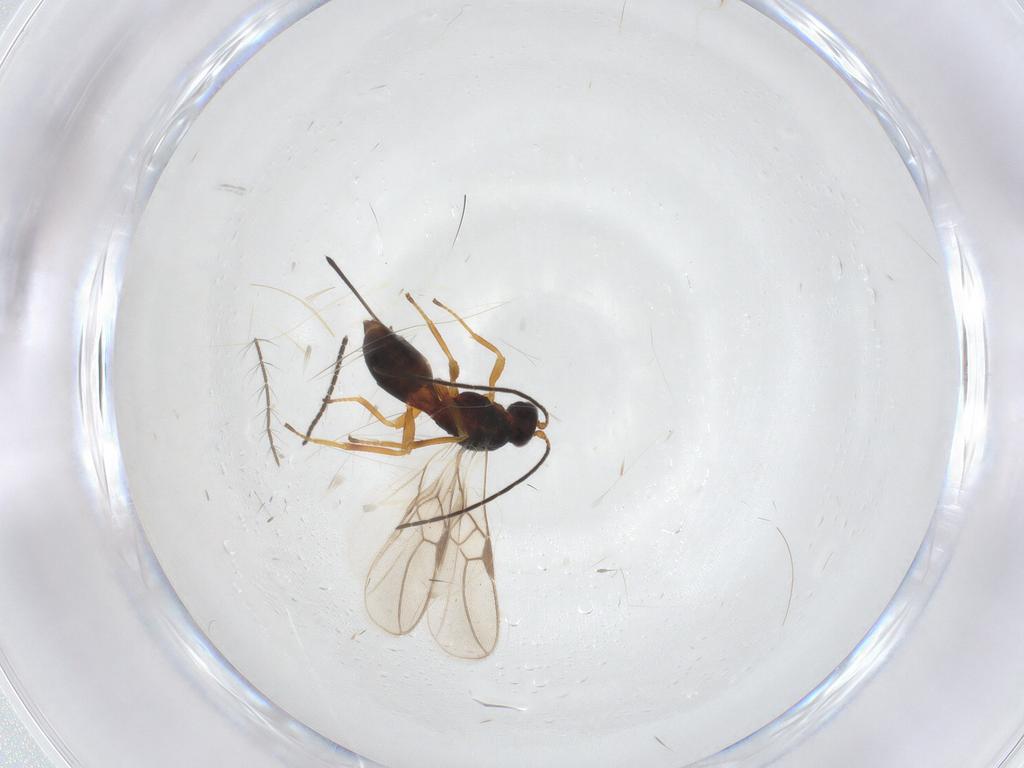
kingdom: Animalia
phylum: Arthropoda
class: Insecta
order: Hymenoptera
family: Braconidae
